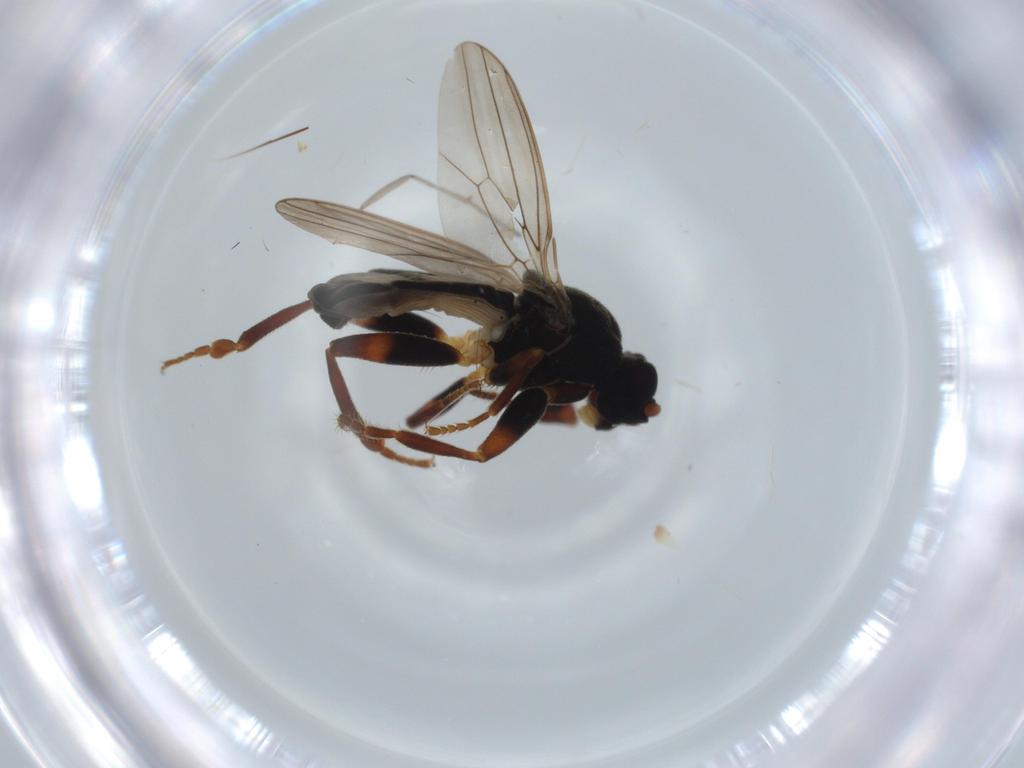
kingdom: Animalia
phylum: Arthropoda
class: Insecta
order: Diptera
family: Sphaeroceridae
